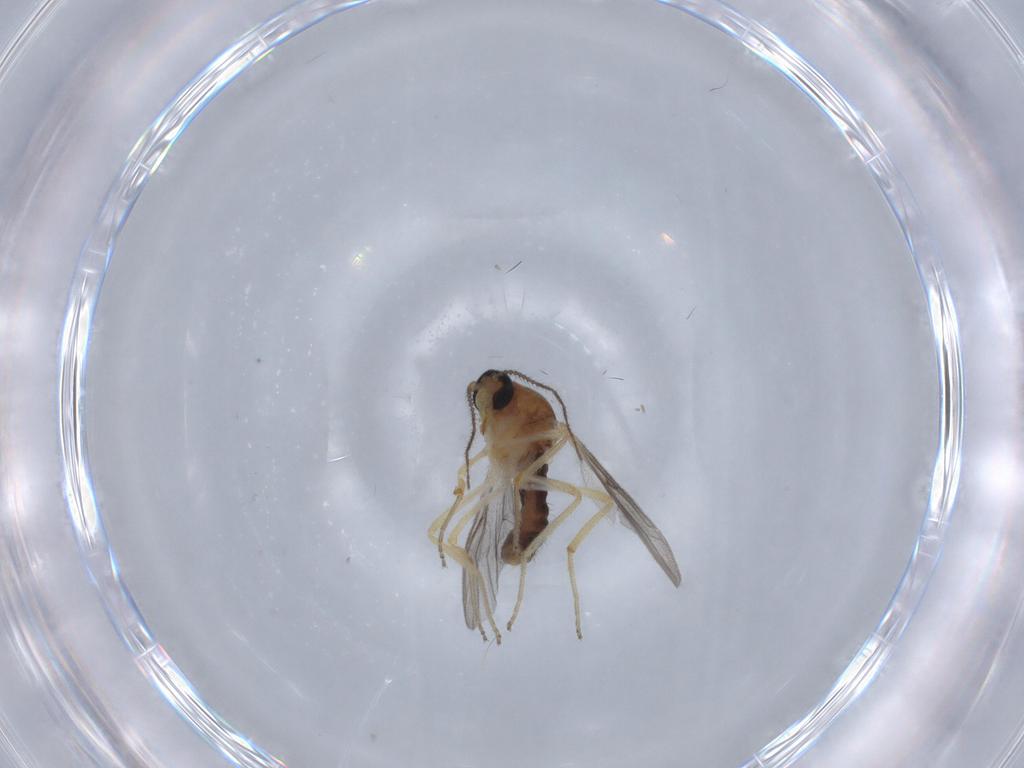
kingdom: Animalia
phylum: Arthropoda
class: Insecta
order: Diptera
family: Ceratopogonidae
